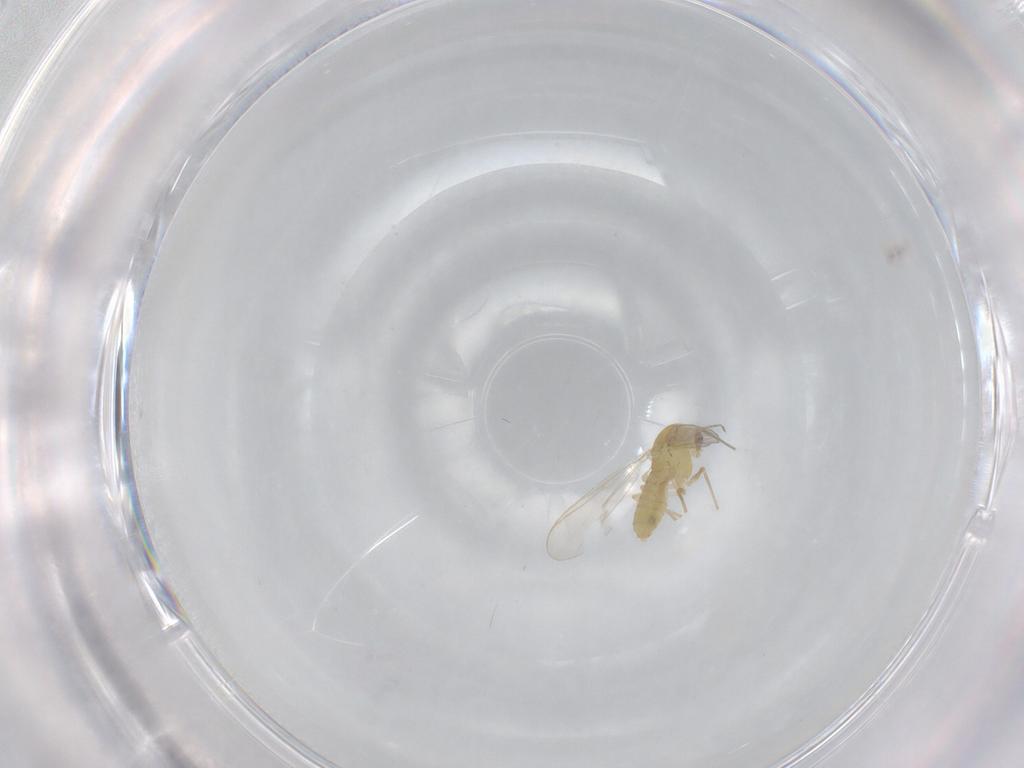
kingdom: Animalia
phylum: Arthropoda
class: Insecta
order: Diptera
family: Chironomidae
